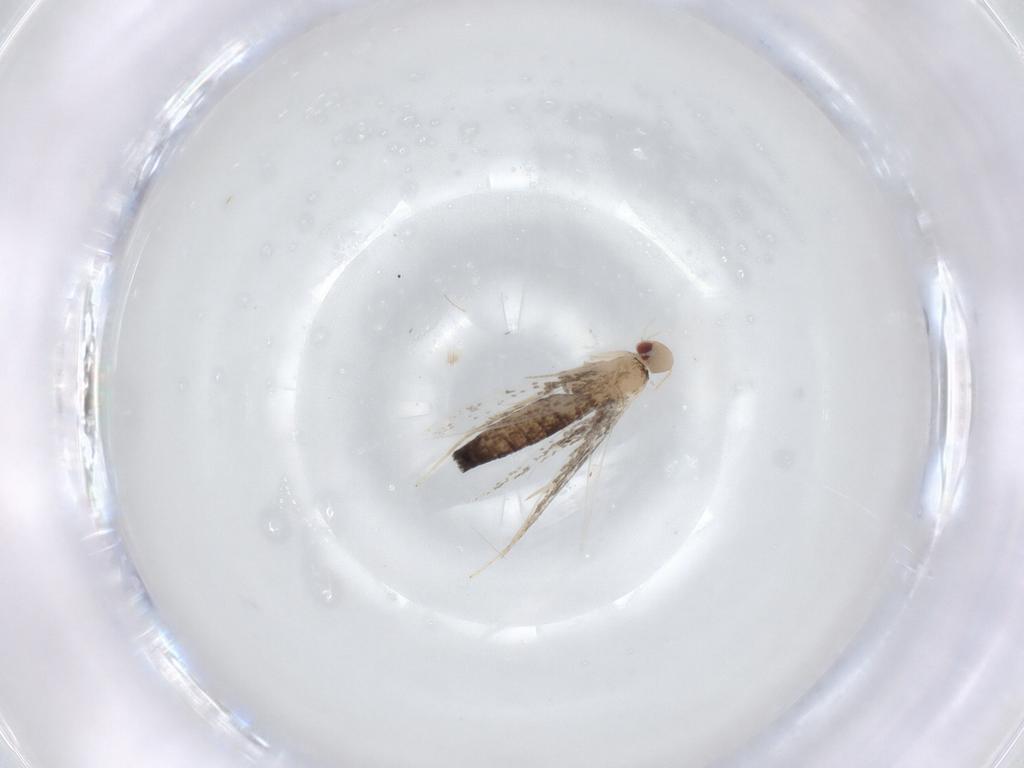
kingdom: Animalia
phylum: Arthropoda
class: Insecta
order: Lepidoptera
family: Gracillariidae
